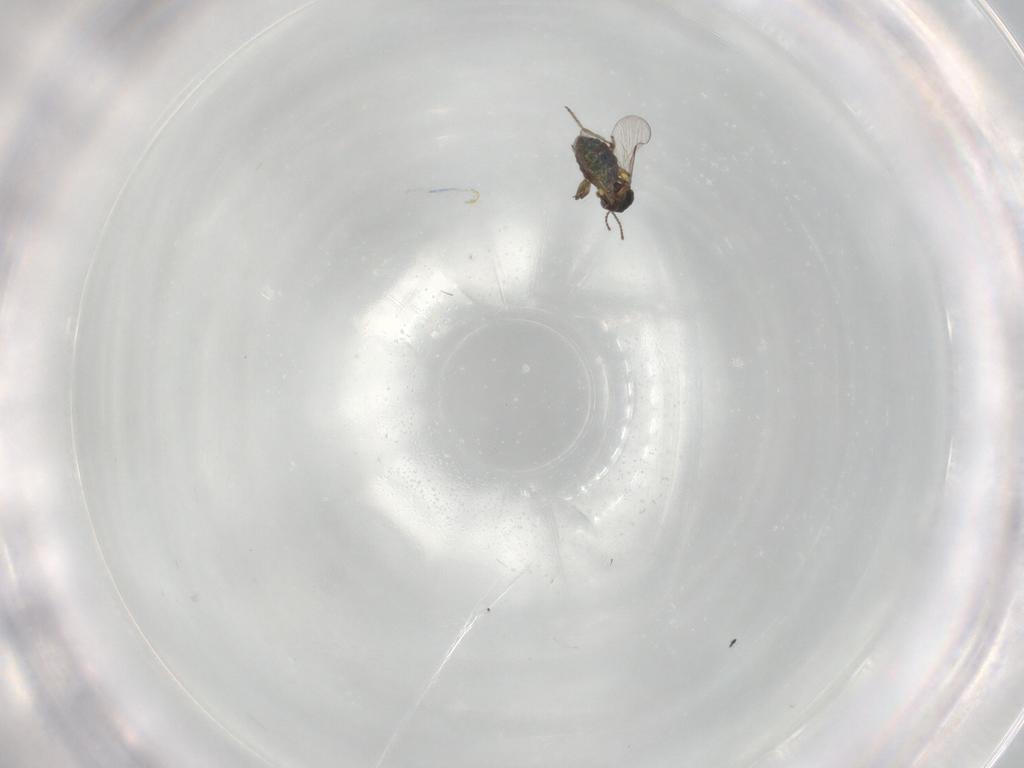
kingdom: Animalia
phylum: Arthropoda
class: Insecta
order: Diptera
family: Ceratopogonidae
